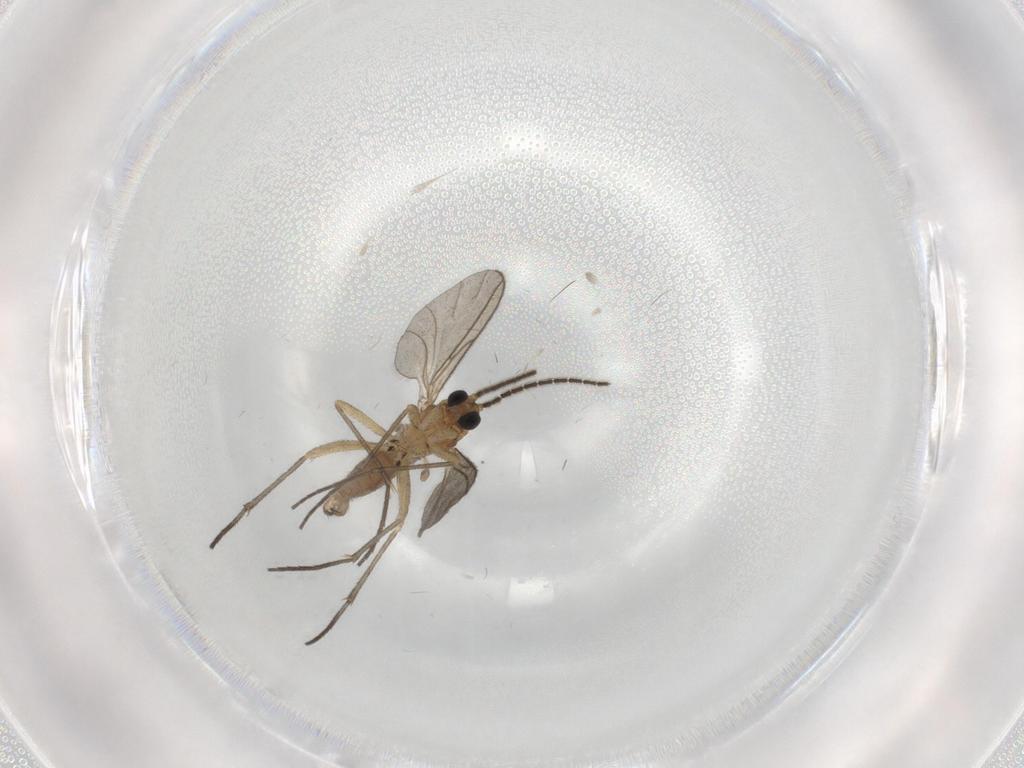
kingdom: Animalia
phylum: Arthropoda
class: Insecta
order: Diptera
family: Sciaridae
